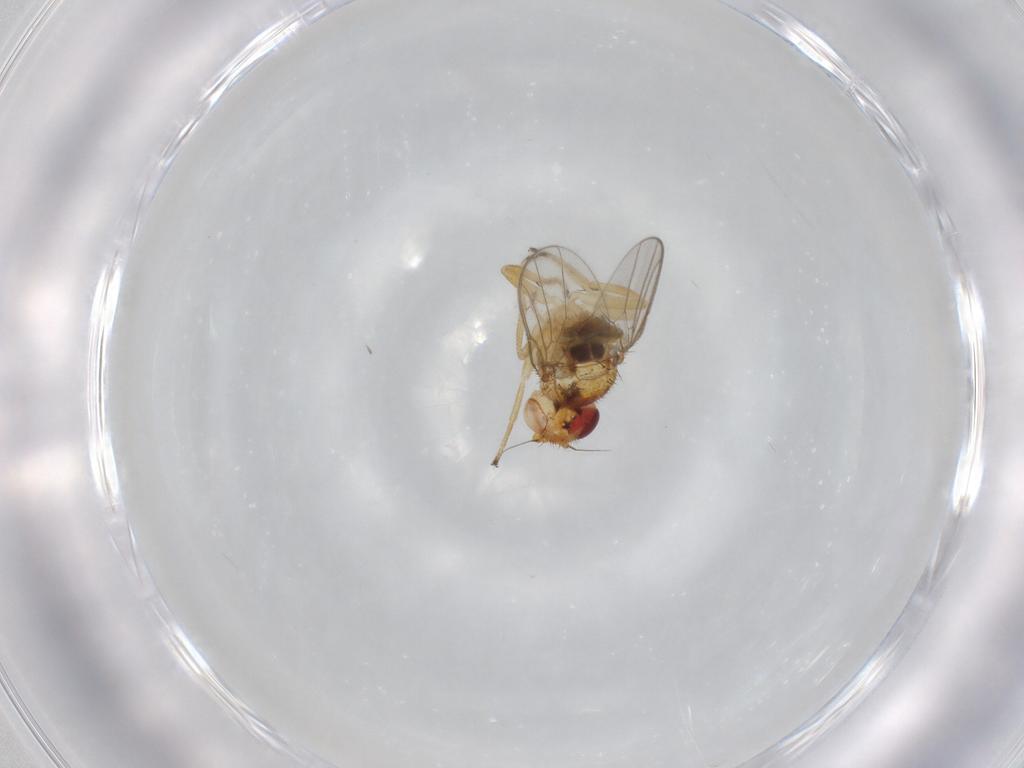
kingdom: Animalia
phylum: Arthropoda
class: Insecta
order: Diptera
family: Chloropidae
